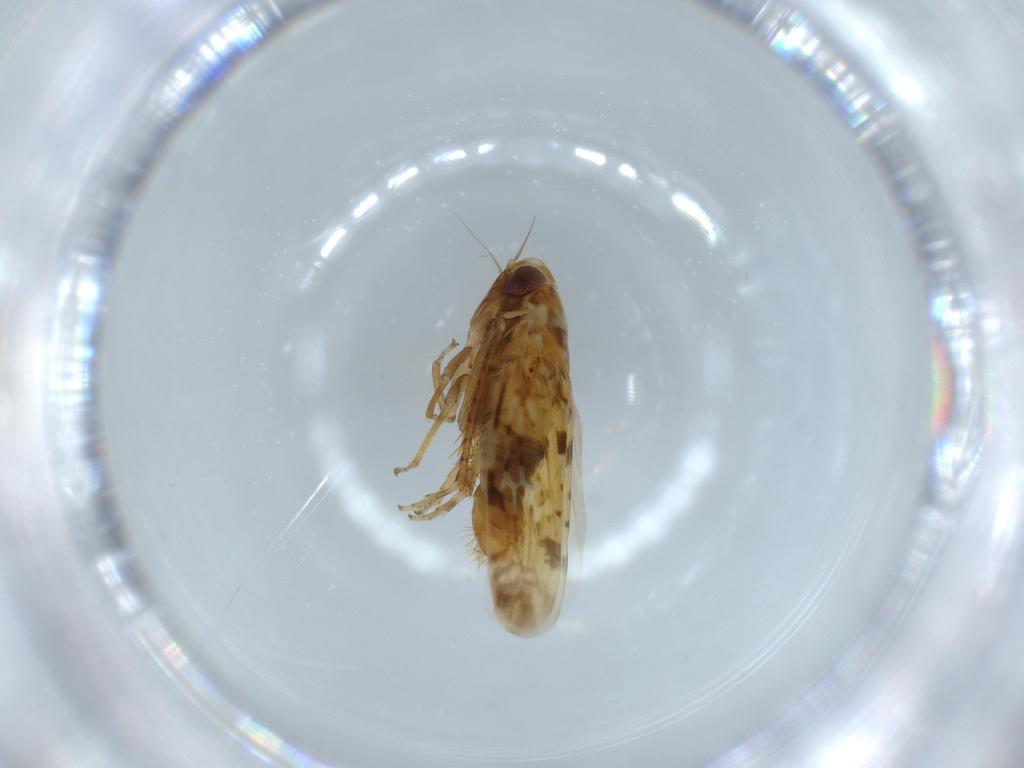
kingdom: Animalia
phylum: Arthropoda
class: Insecta
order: Hemiptera
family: Cicadellidae
